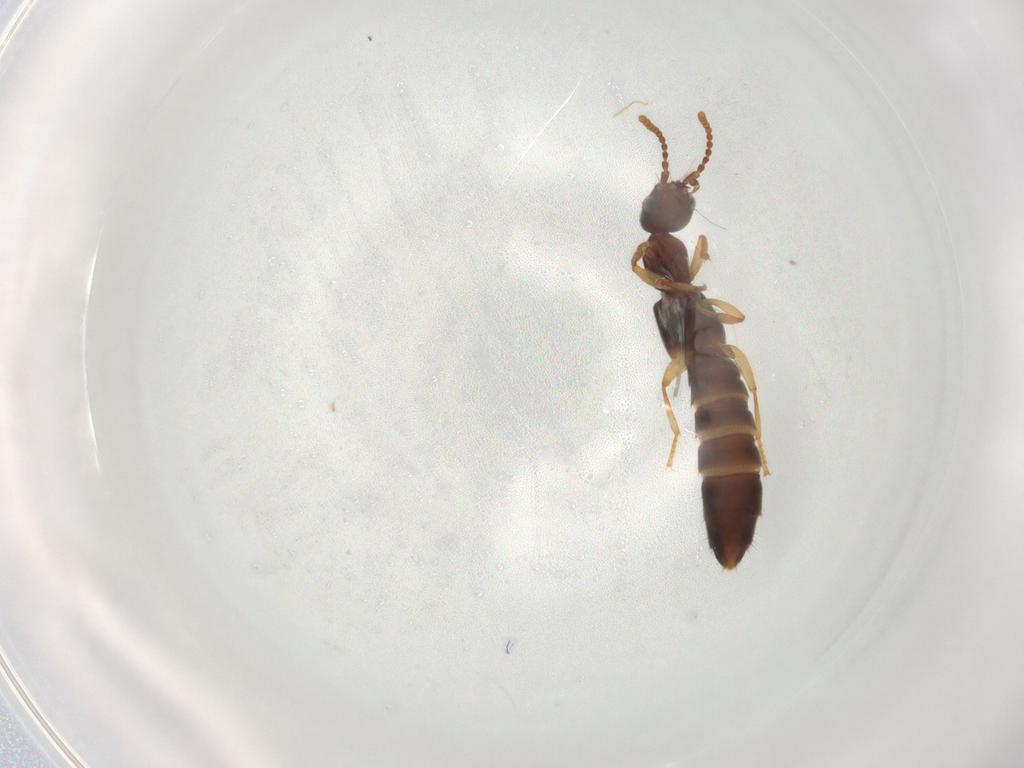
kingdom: Animalia
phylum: Arthropoda
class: Insecta
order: Coleoptera
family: Staphylinidae
